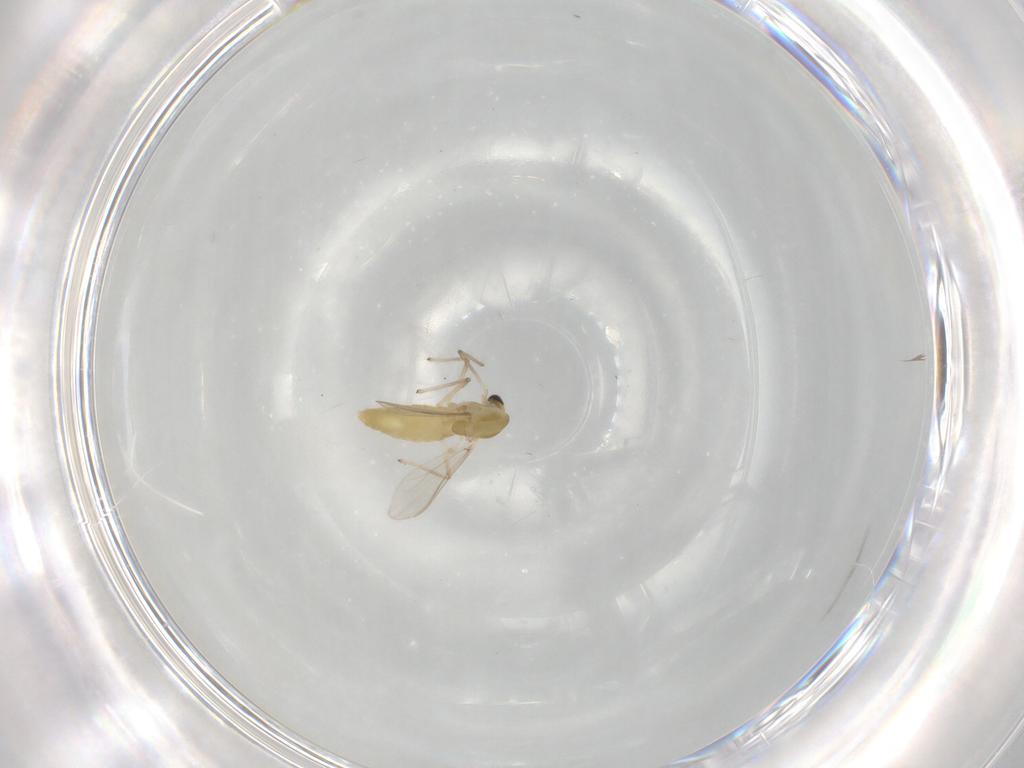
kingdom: Animalia
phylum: Arthropoda
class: Insecta
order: Diptera
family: Chironomidae
